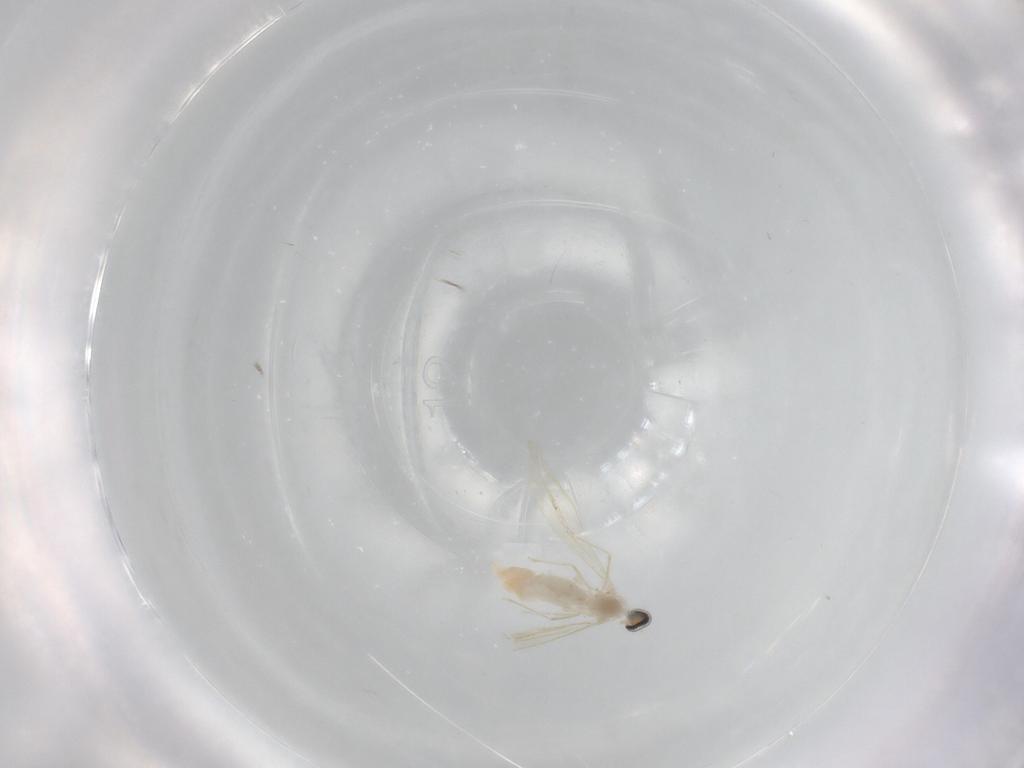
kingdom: Animalia
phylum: Arthropoda
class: Insecta
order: Diptera
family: Cecidomyiidae
